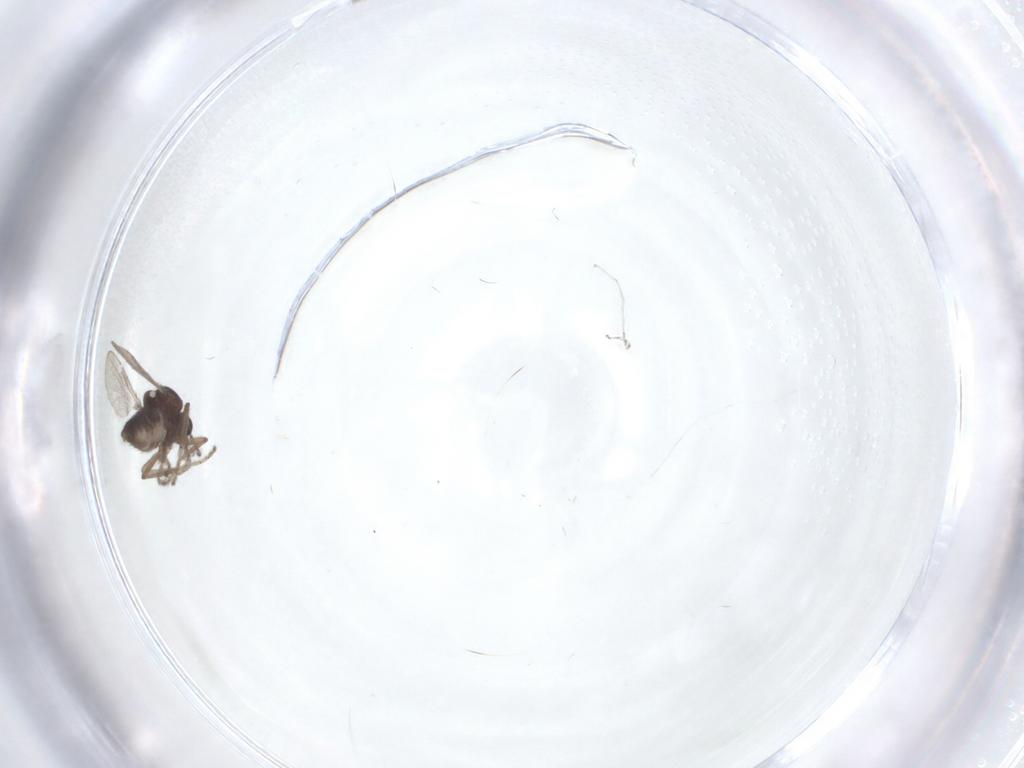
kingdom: Animalia
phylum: Arthropoda
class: Insecta
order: Diptera
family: Ceratopogonidae
